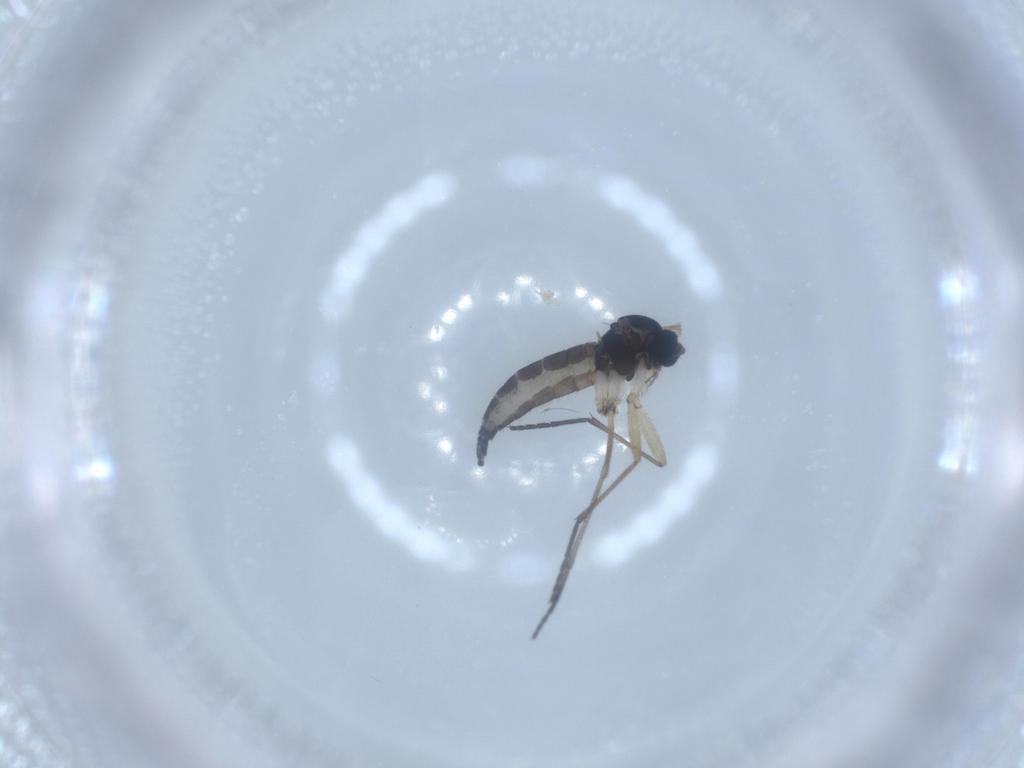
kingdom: Animalia
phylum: Arthropoda
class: Insecta
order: Diptera
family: Sciaridae
